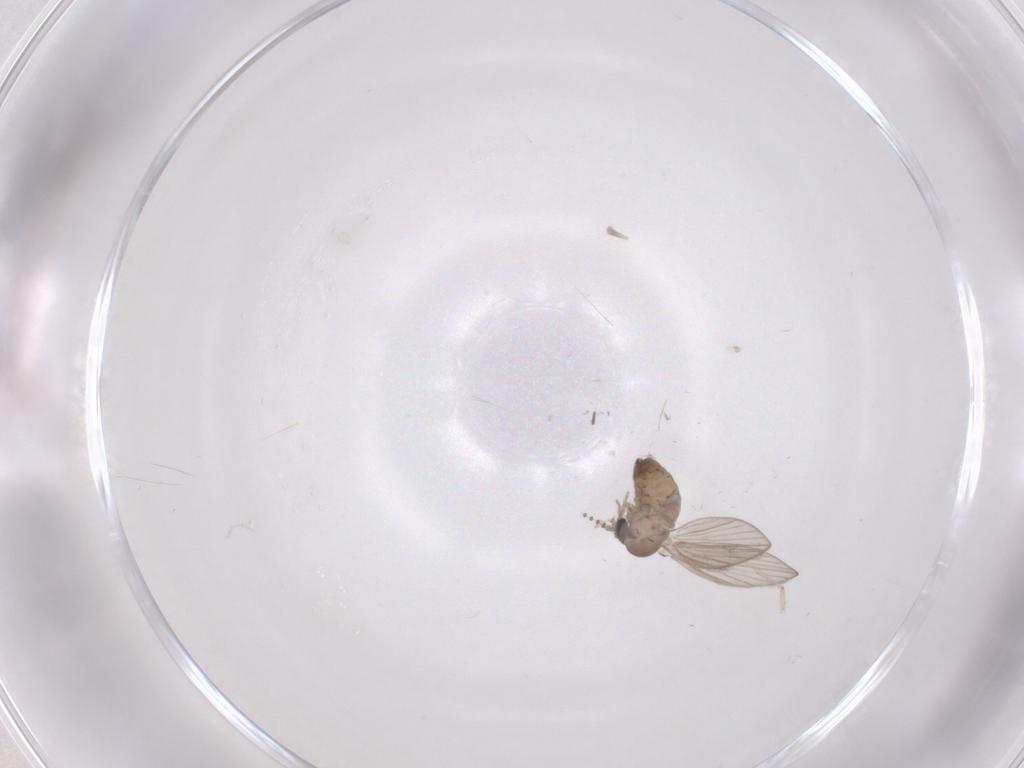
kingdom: Animalia
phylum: Arthropoda
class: Insecta
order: Diptera
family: Psychodidae
